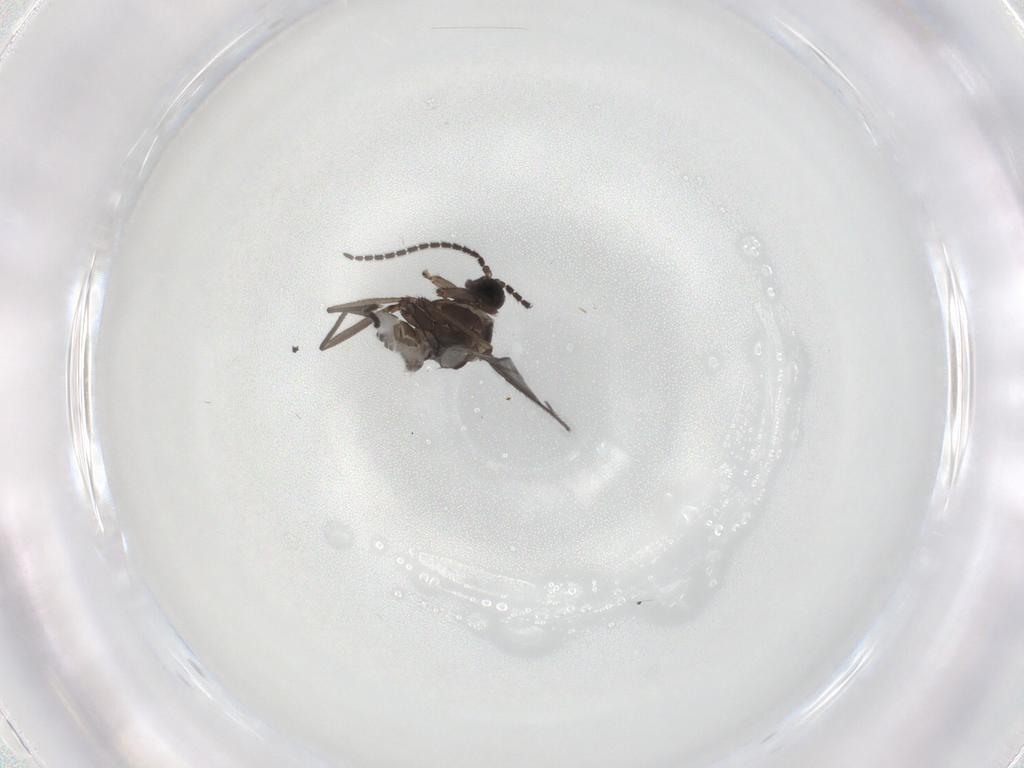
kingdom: Animalia
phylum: Arthropoda
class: Insecta
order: Diptera
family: Sciaridae
